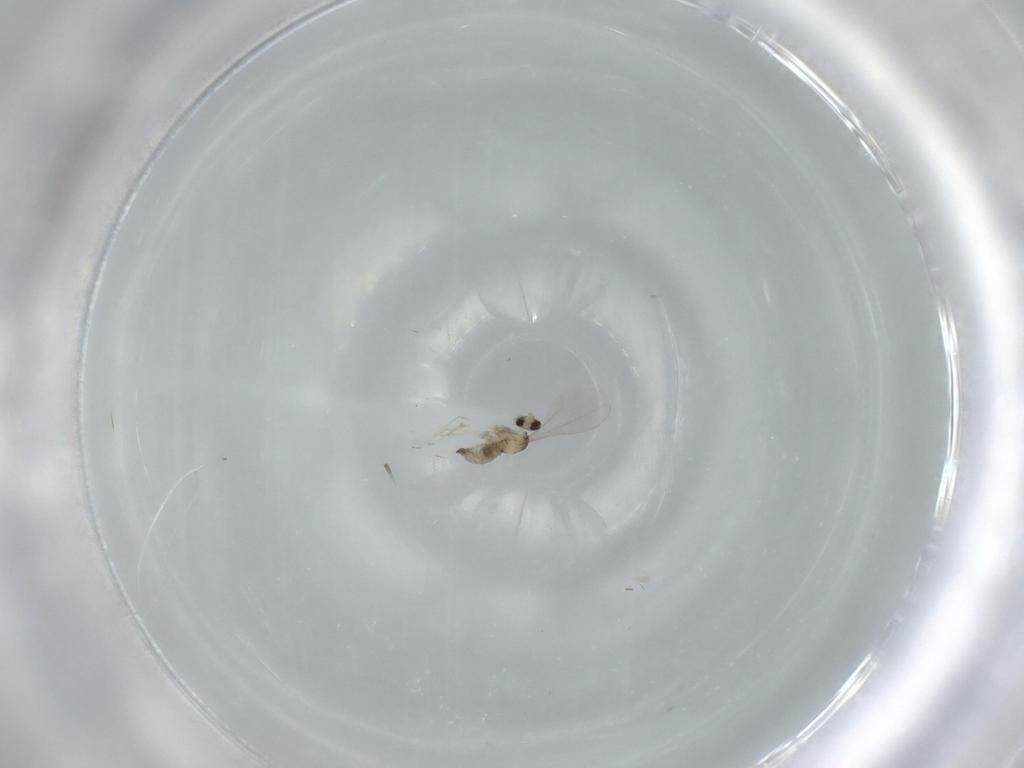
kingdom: Animalia
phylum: Arthropoda
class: Insecta
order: Diptera
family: Cecidomyiidae
